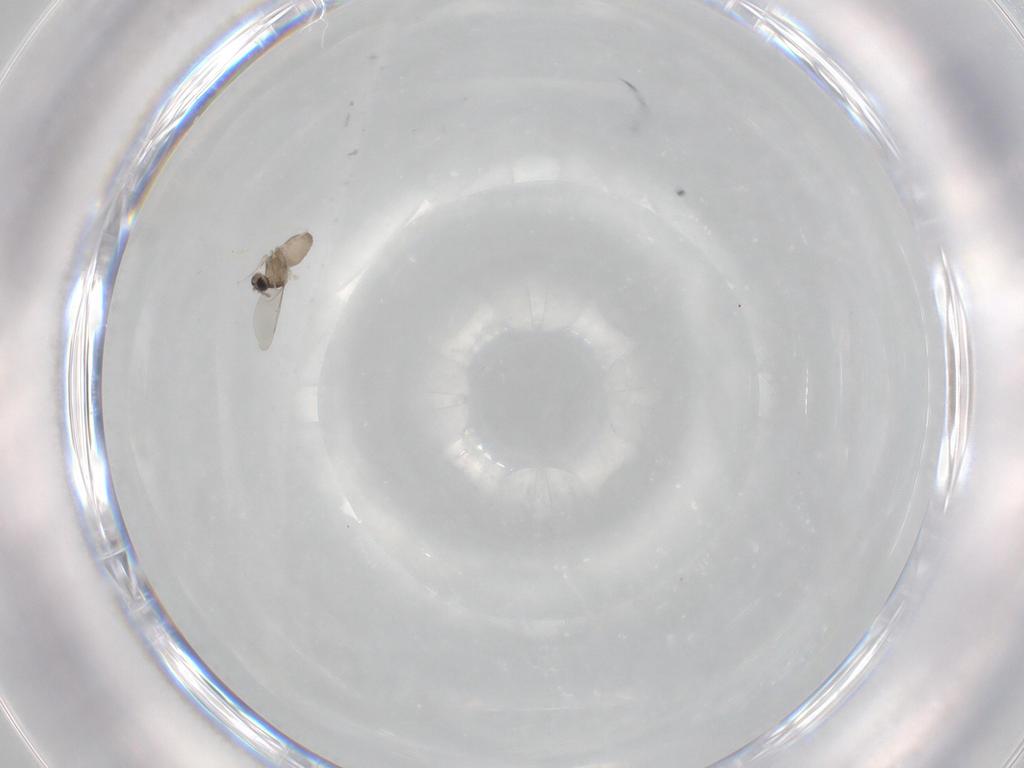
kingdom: Animalia
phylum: Arthropoda
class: Insecta
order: Diptera
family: Cecidomyiidae
